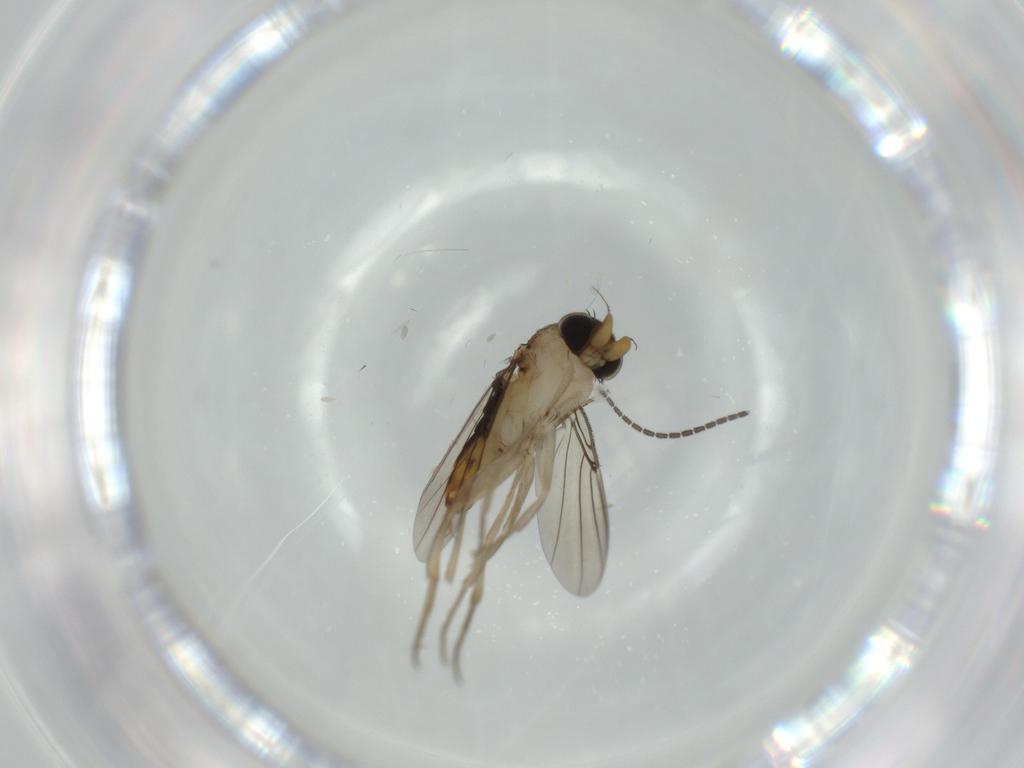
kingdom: Animalia
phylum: Arthropoda
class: Insecta
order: Diptera
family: Phoridae
